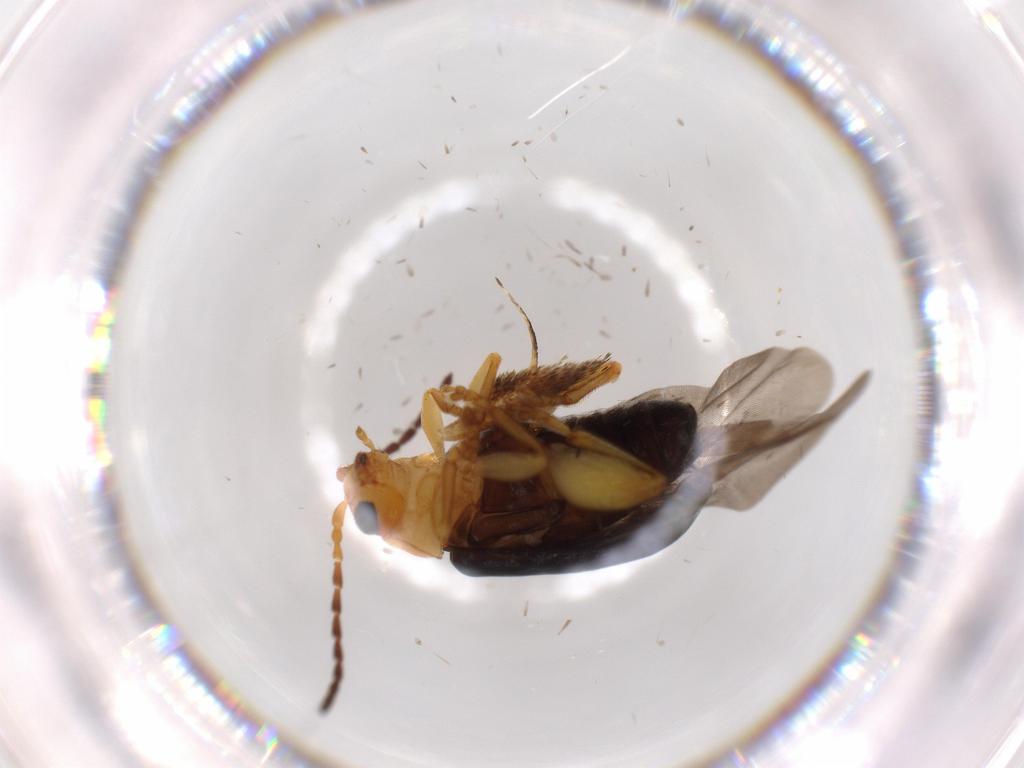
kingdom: Animalia
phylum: Arthropoda
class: Insecta
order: Coleoptera
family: Chrysomelidae
